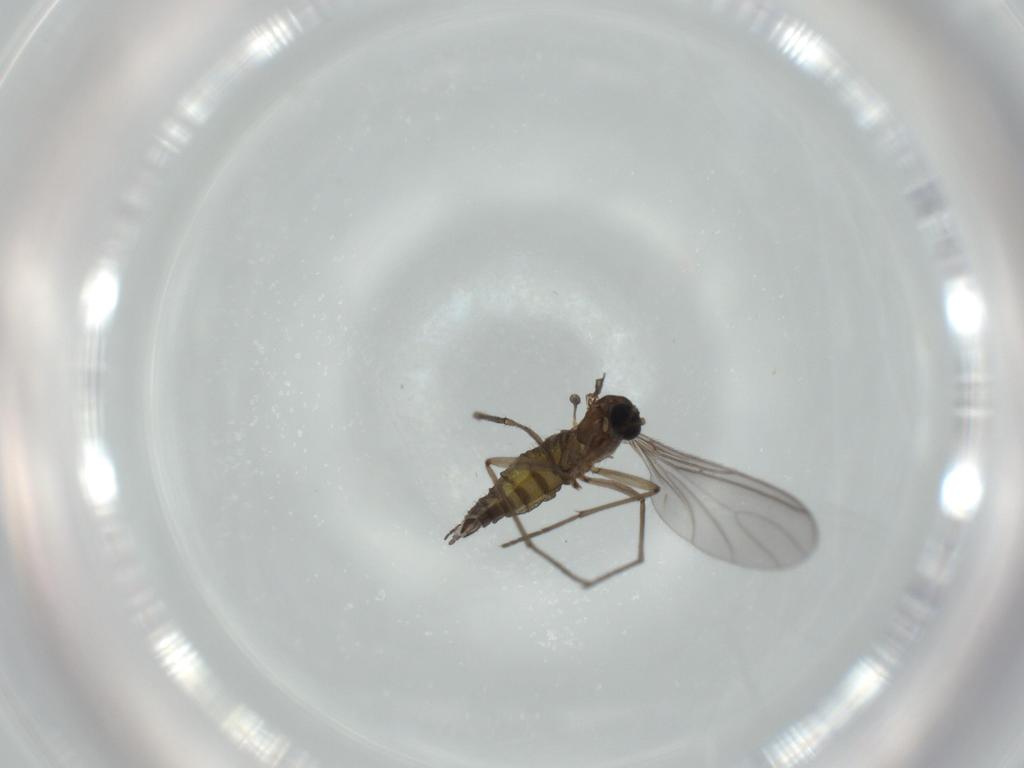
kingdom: Animalia
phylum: Arthropoda
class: Insecta
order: Diptera
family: Sciaridae
